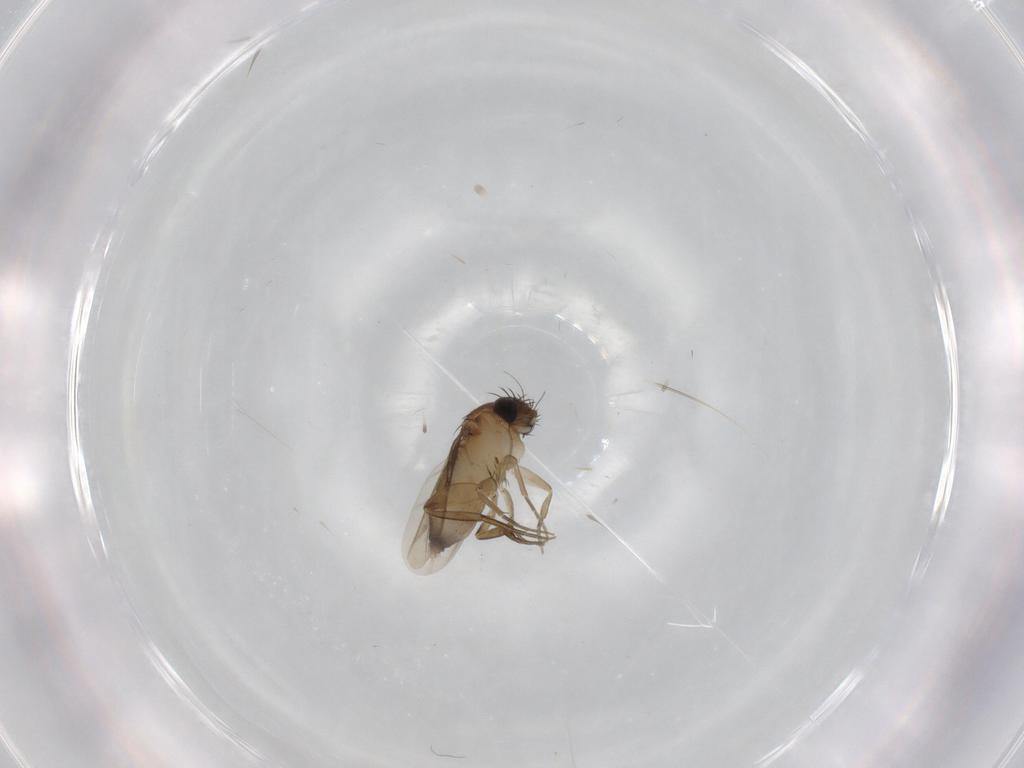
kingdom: Animalia
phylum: Arthropoda
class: Insecta
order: Diptera
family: Phoridae
